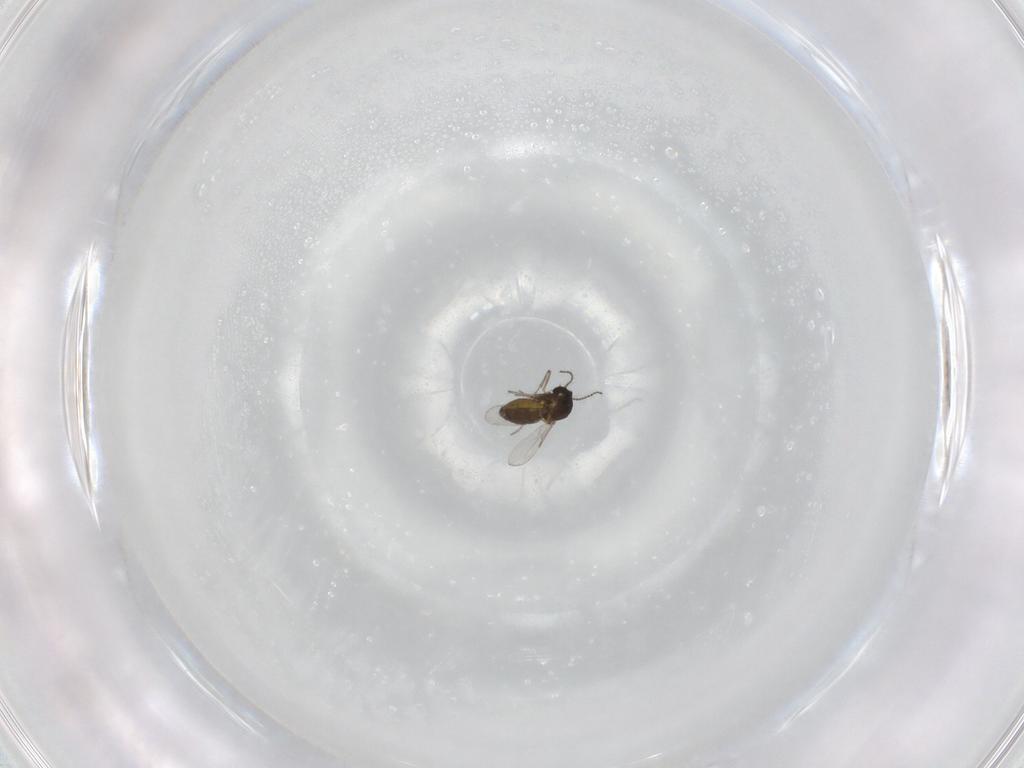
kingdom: Animalia
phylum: Arthropoda
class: Insecta
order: Diptera
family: Ceratopogonidae
